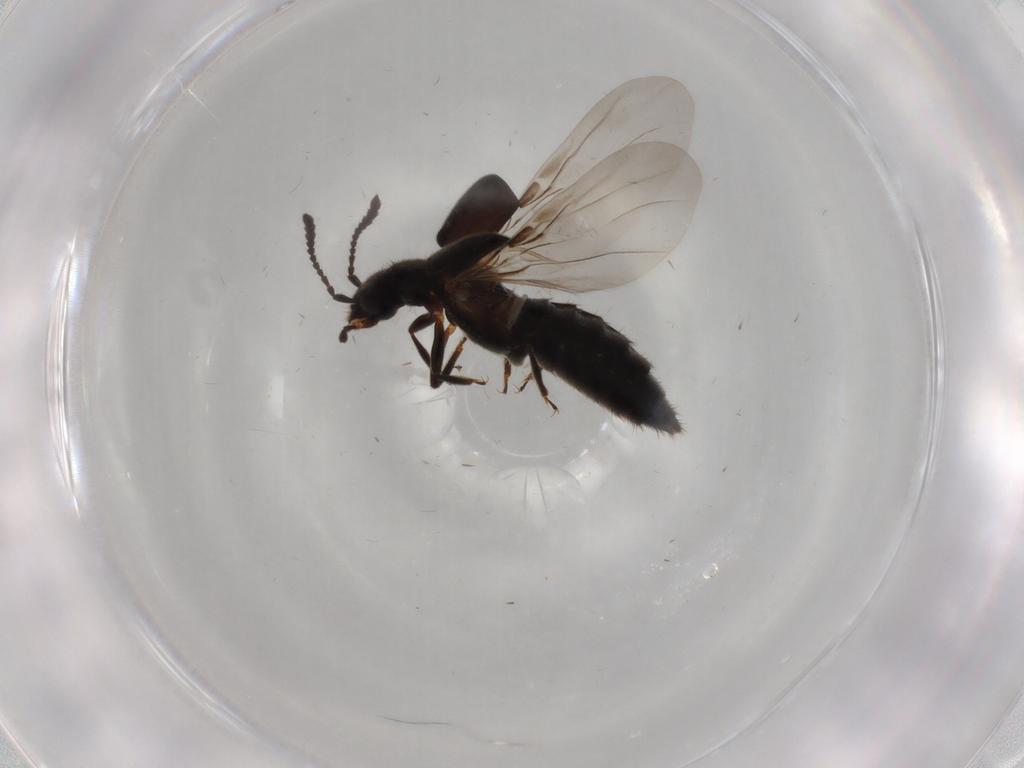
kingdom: Animalia
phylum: Arthropoda
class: Insecta
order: Coleoptera
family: Staphylinidae
